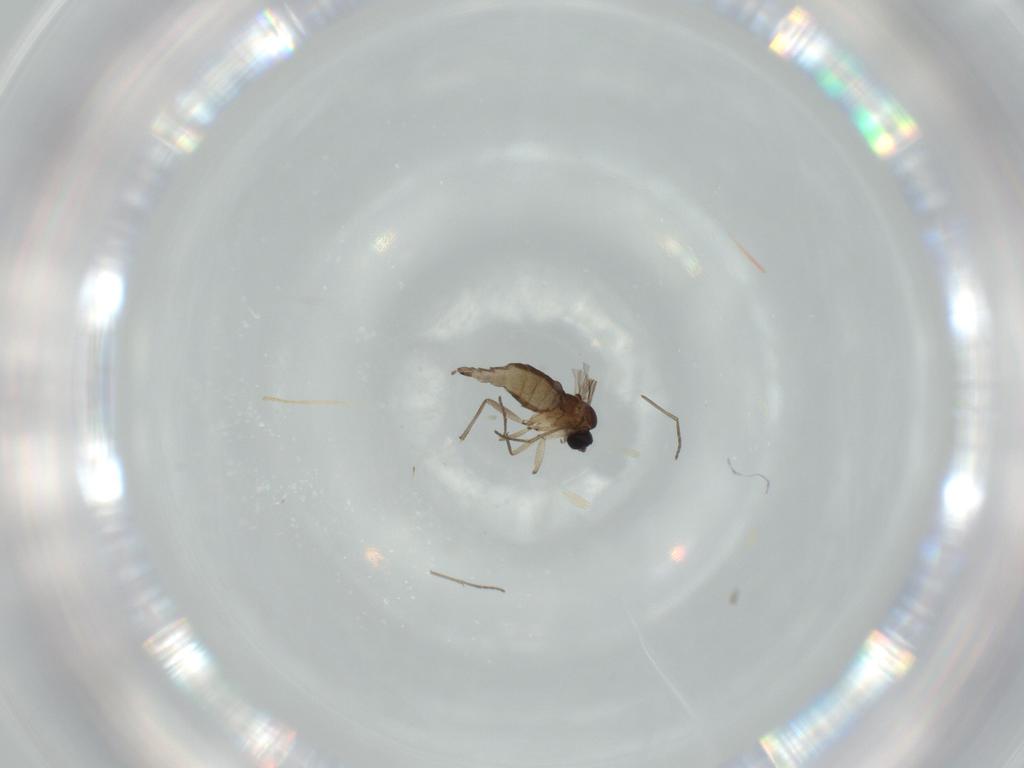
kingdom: Animalia
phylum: Arthropoda
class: Insecta
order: Diptera
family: Sciaridae
